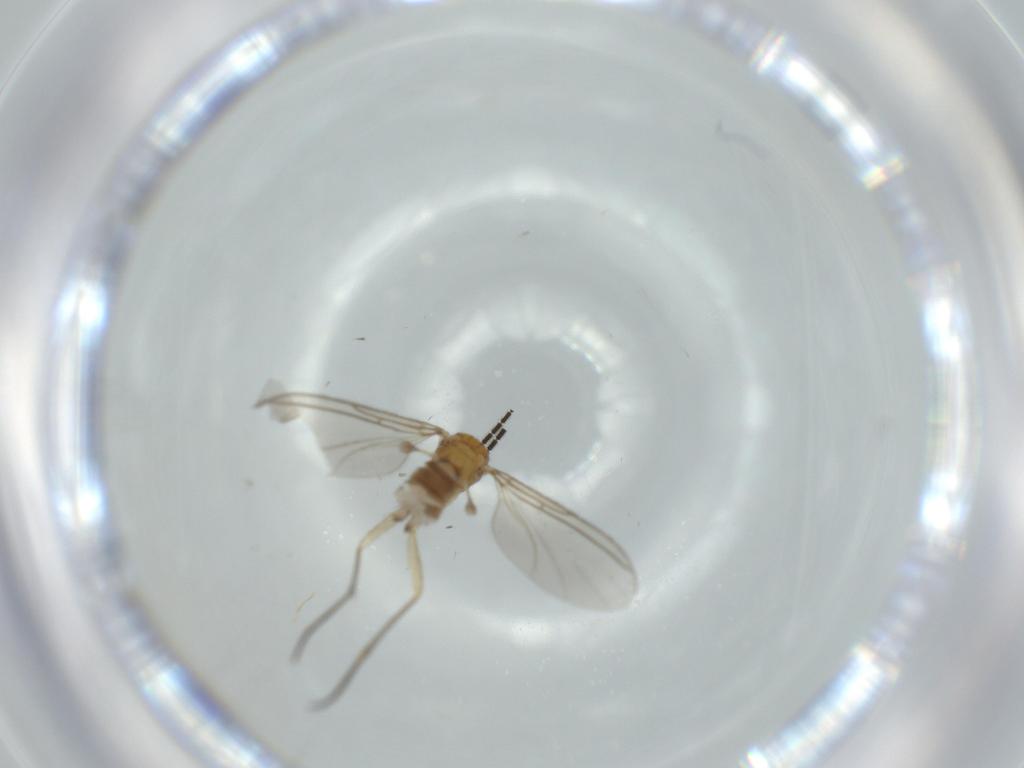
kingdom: Animalia
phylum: Arthropoda
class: Insecta
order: Diptera
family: Sciaridae
